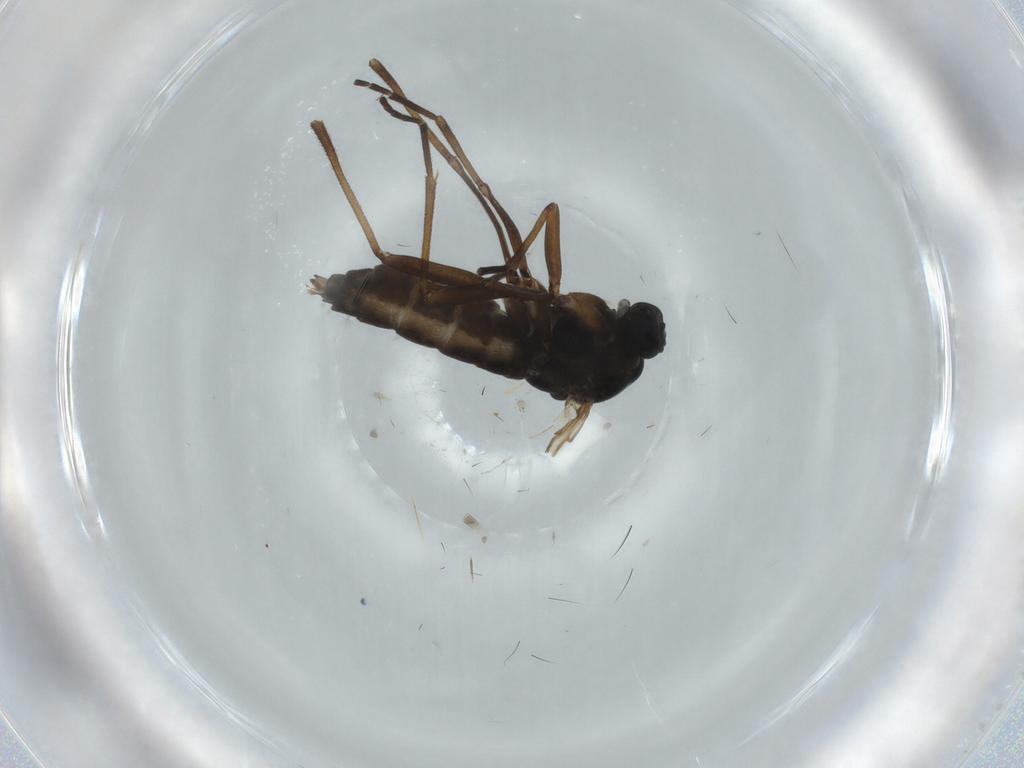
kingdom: Animalia
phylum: Arthropoda
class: Insecta
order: Diptera
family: Sciaridae
